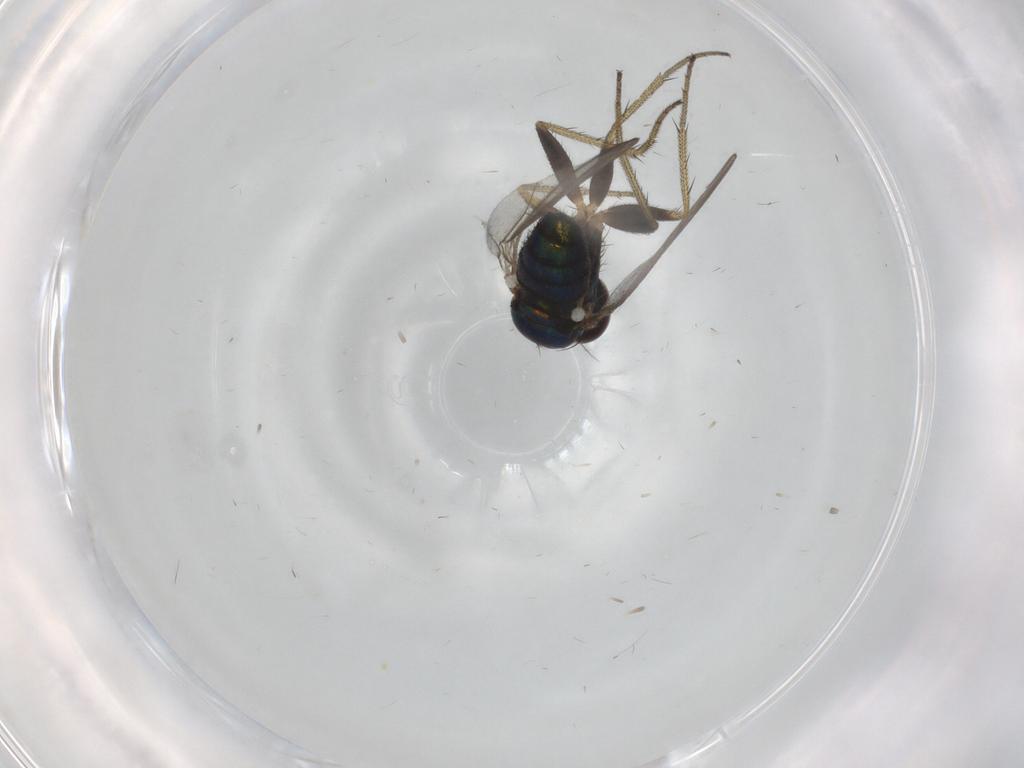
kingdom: Animalia
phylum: Arthropoda
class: Insecta
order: Diptera
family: Chironomidae
